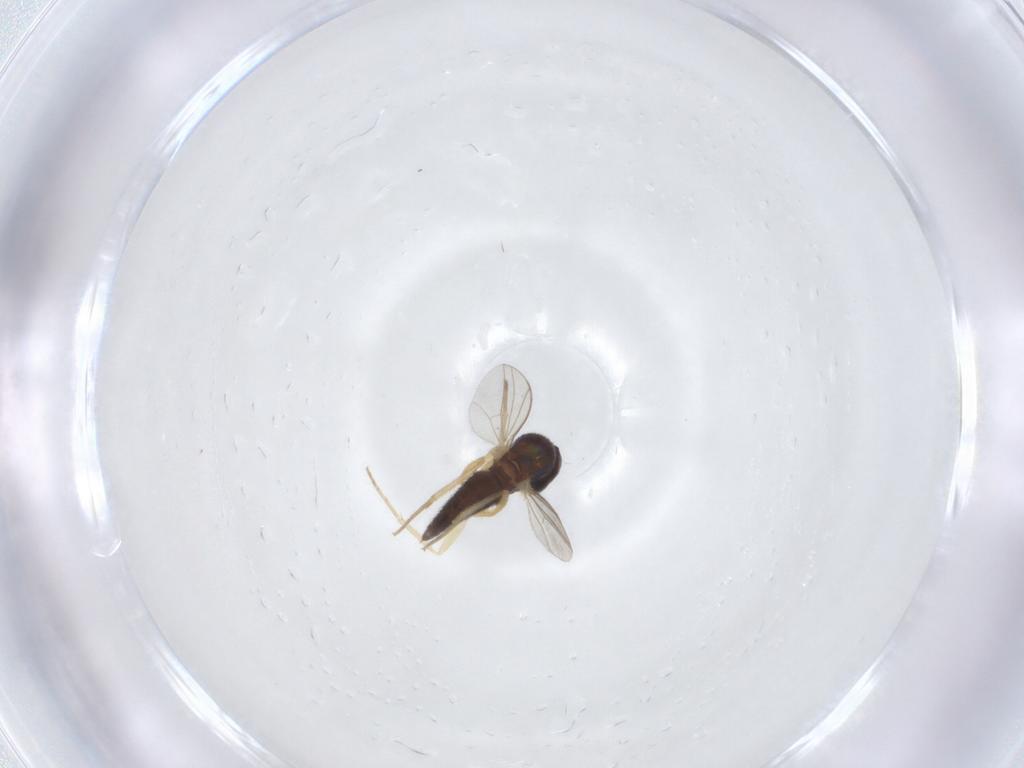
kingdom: Animalia
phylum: Arthropoda
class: Insecta
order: Diptera
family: Dolichopodidae
